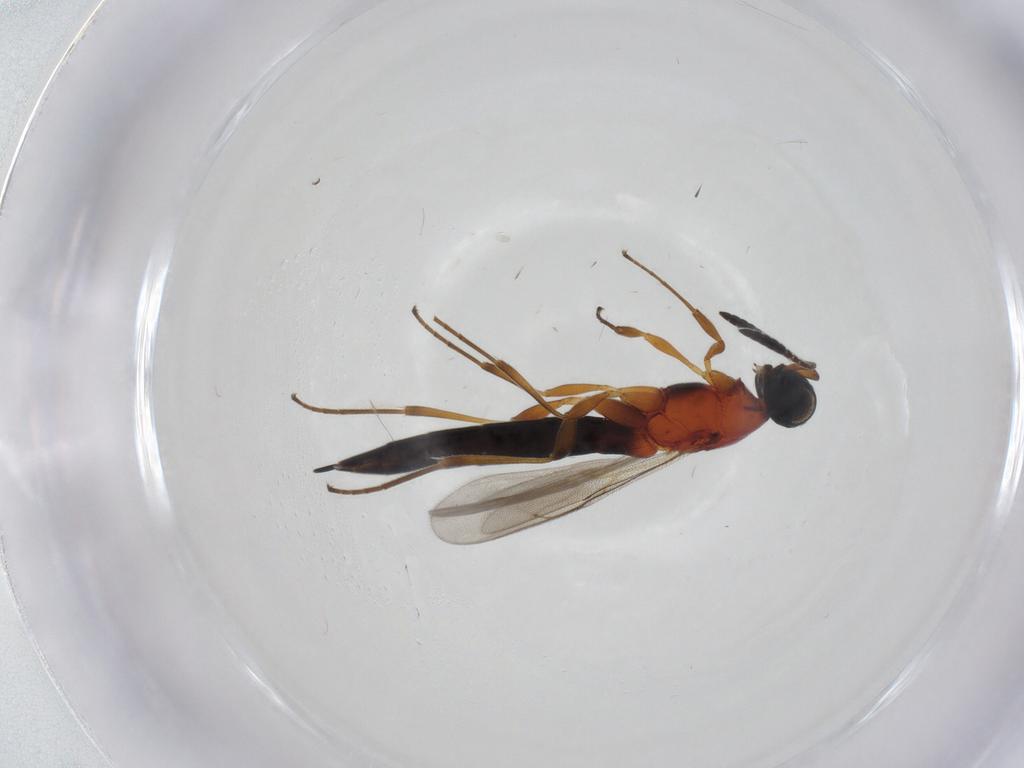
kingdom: Animalia
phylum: Arthropoda
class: Insecta
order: Hymenoptera
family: Scelionidae
